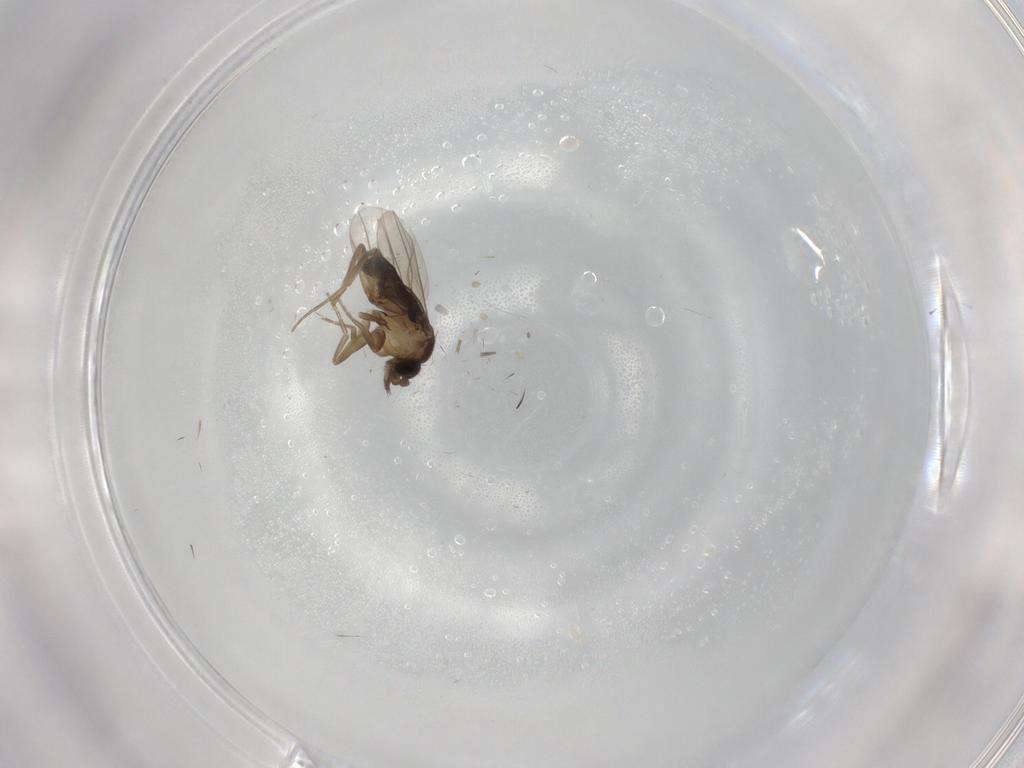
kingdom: Animalia
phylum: Arthropoda
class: Insecta
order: Diptera
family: Phoridae
